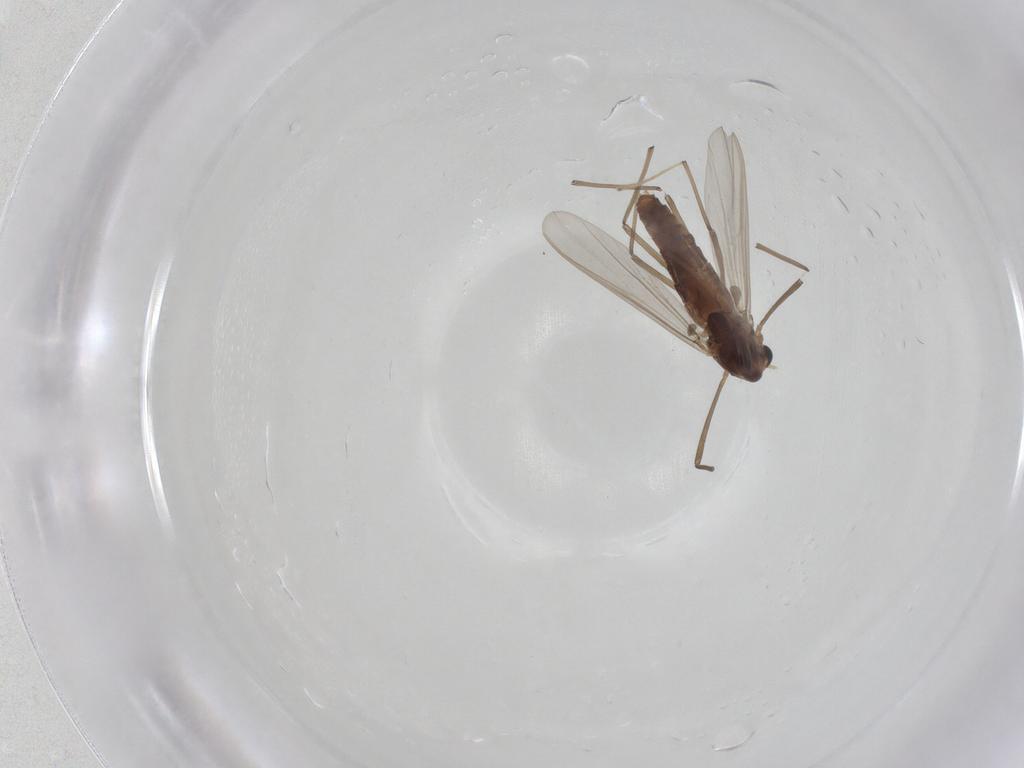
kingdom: Animalia
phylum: Arthropoda
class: Insecta
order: Diptera
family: Chironomidae
